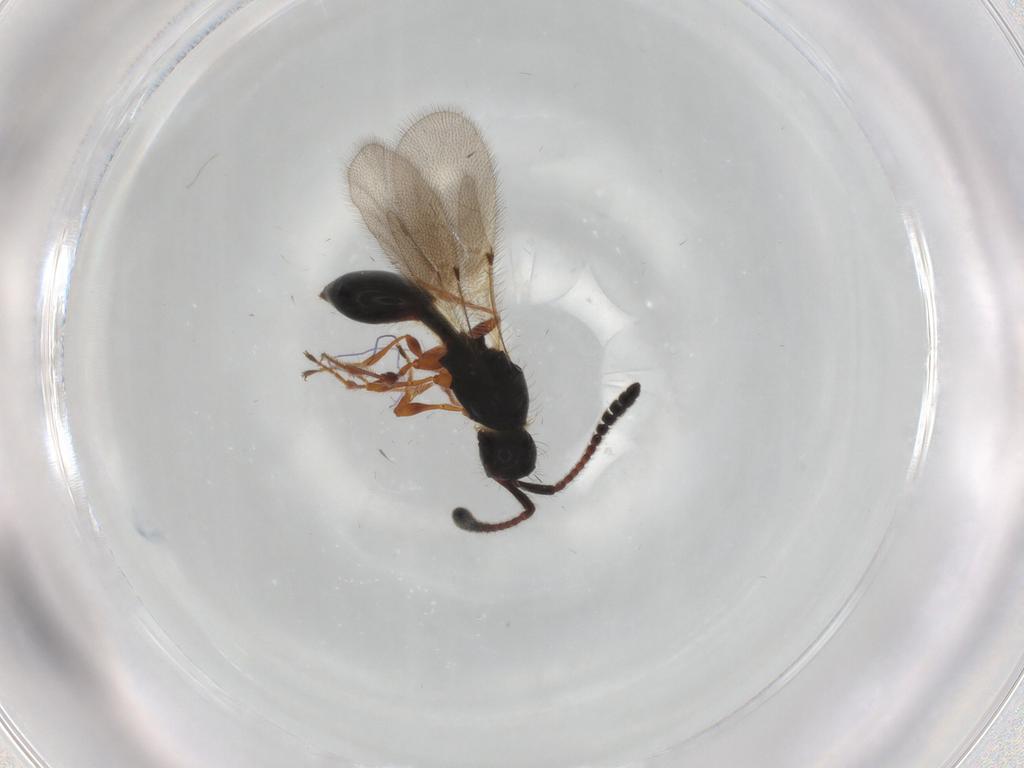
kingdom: Animalia
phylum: Arthropoda
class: Insecta
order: Hymenoptera
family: Diapriidae
